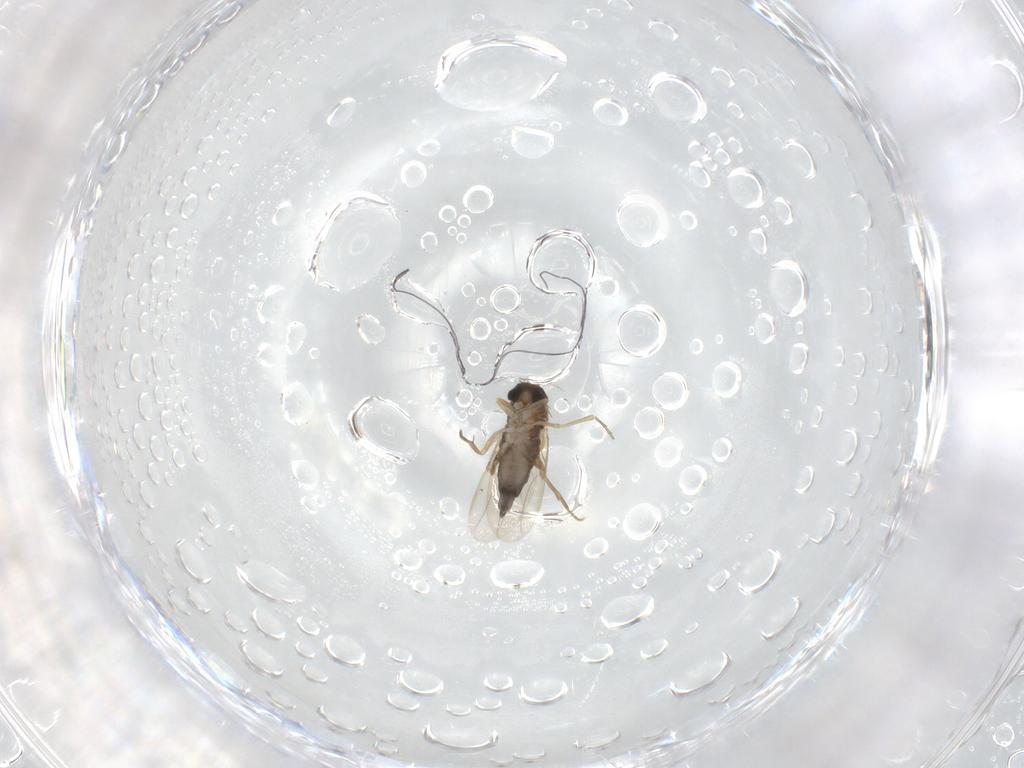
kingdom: Animalia
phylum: Arthropoda
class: Insecta
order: Diptera
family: Phoridae
